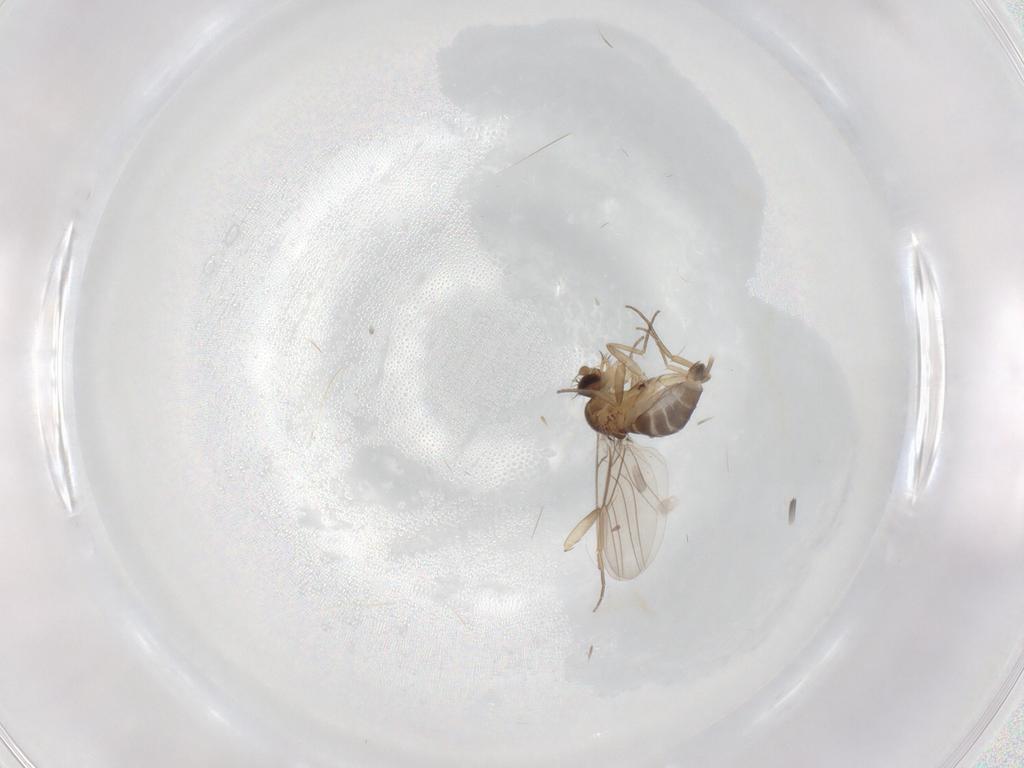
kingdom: Animalia
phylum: Arthropoda
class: Insecta
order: Diptera
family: Phoridae
